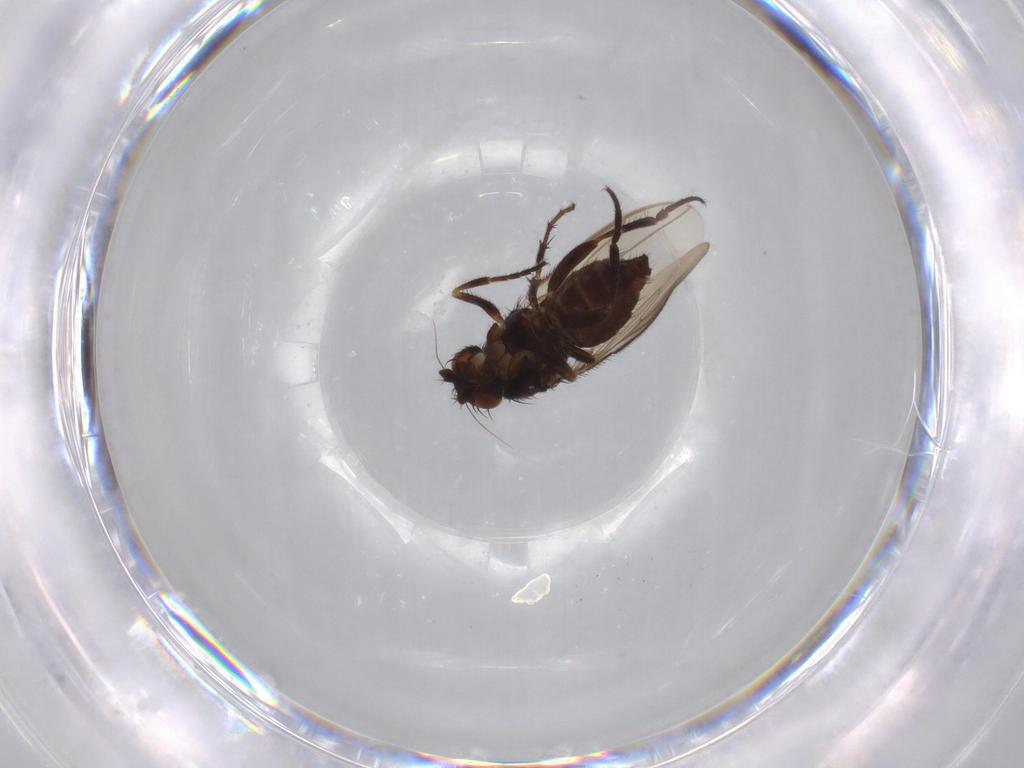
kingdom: Animalia
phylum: Arthropoda
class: Insecta
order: Diptera
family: Sphaeroceridae
